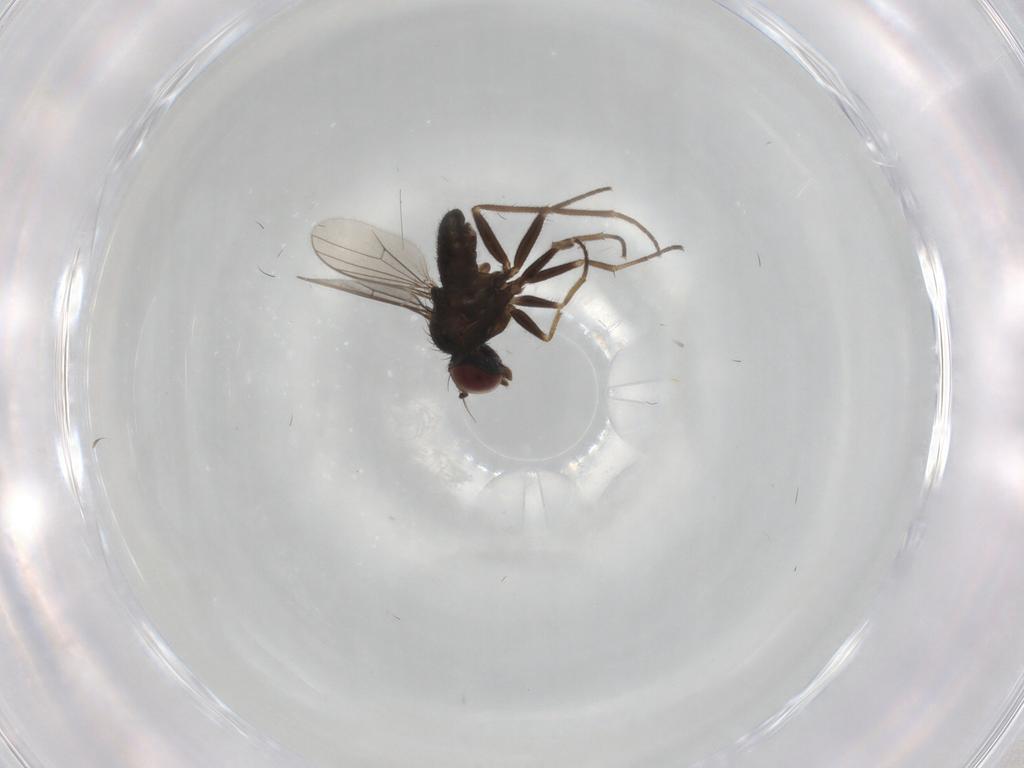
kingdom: Animalia
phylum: Arthropoda
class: Insecta
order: Diptera
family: Dolichopodidae
